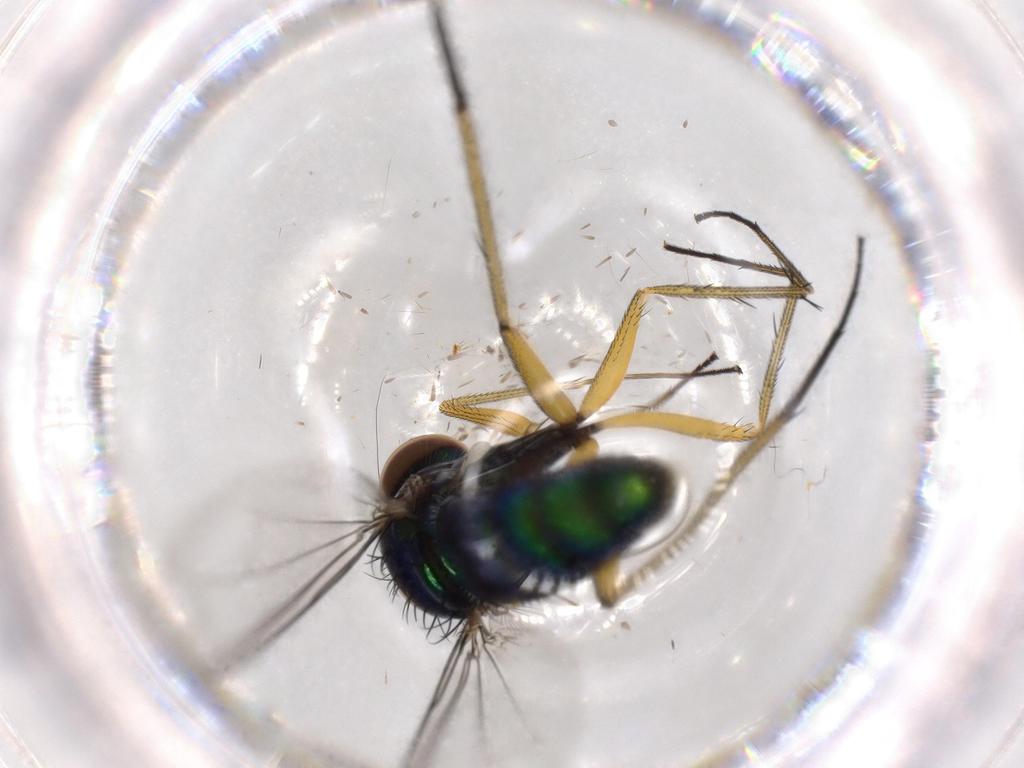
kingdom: Animalia
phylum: Arthropoda
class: Insecta
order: Diptera
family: Dolichopodidae
